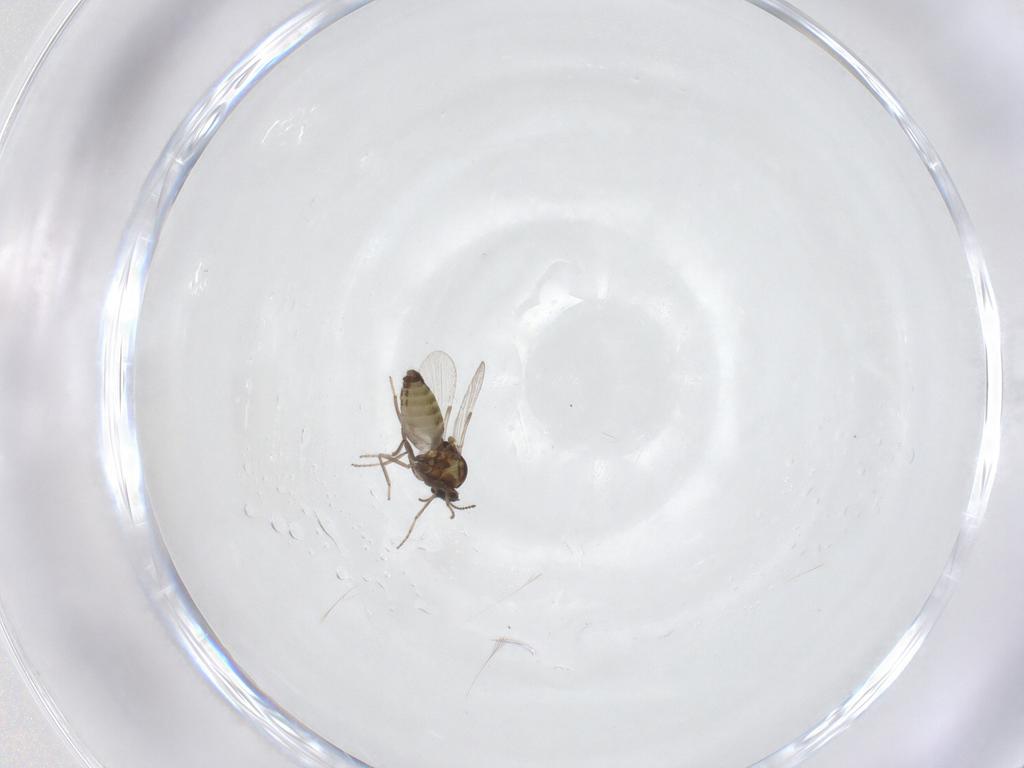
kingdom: Animalia
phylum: Arthropoda
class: Insecta
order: Diptera
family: Ceratopogonidae
